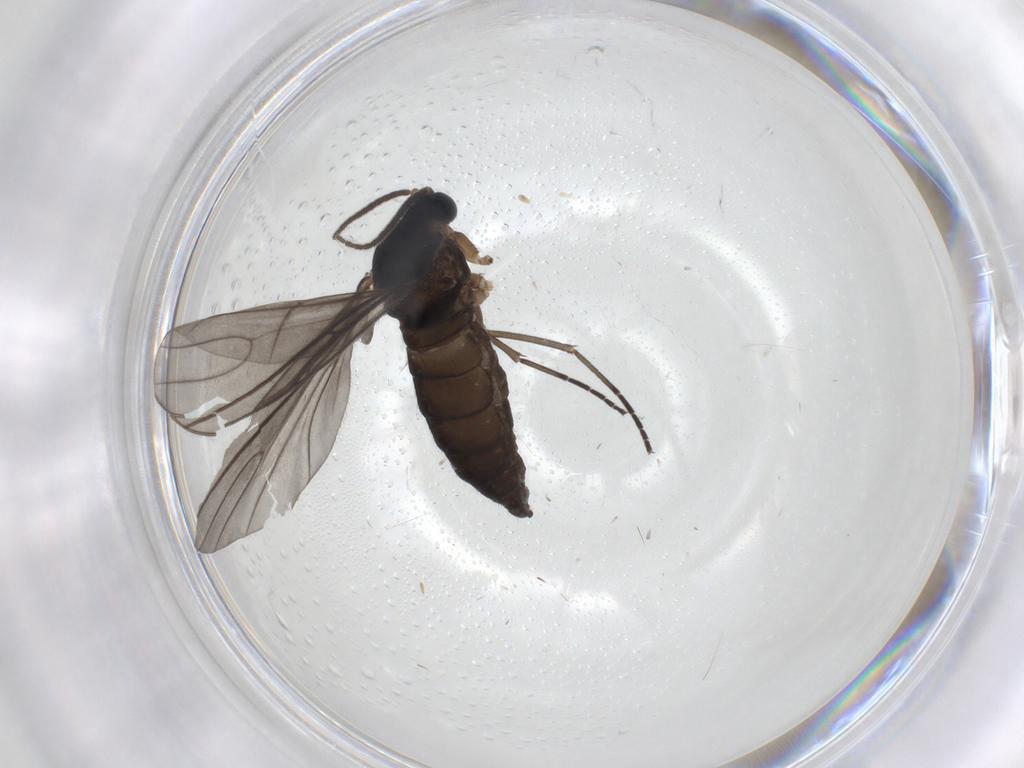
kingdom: Animalia
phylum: Arthropoda
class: Insecta
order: Diptera
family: Sciaridae
